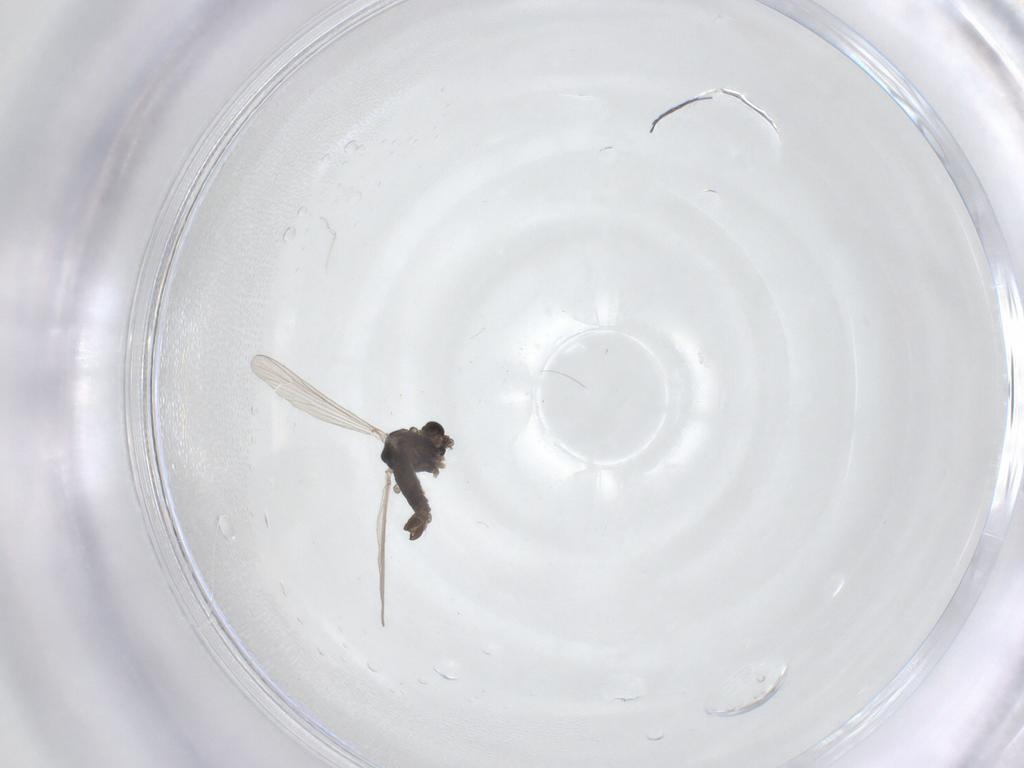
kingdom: Animalia
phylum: Arthropoda
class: Insecta
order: Diptera
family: Chironomidae
